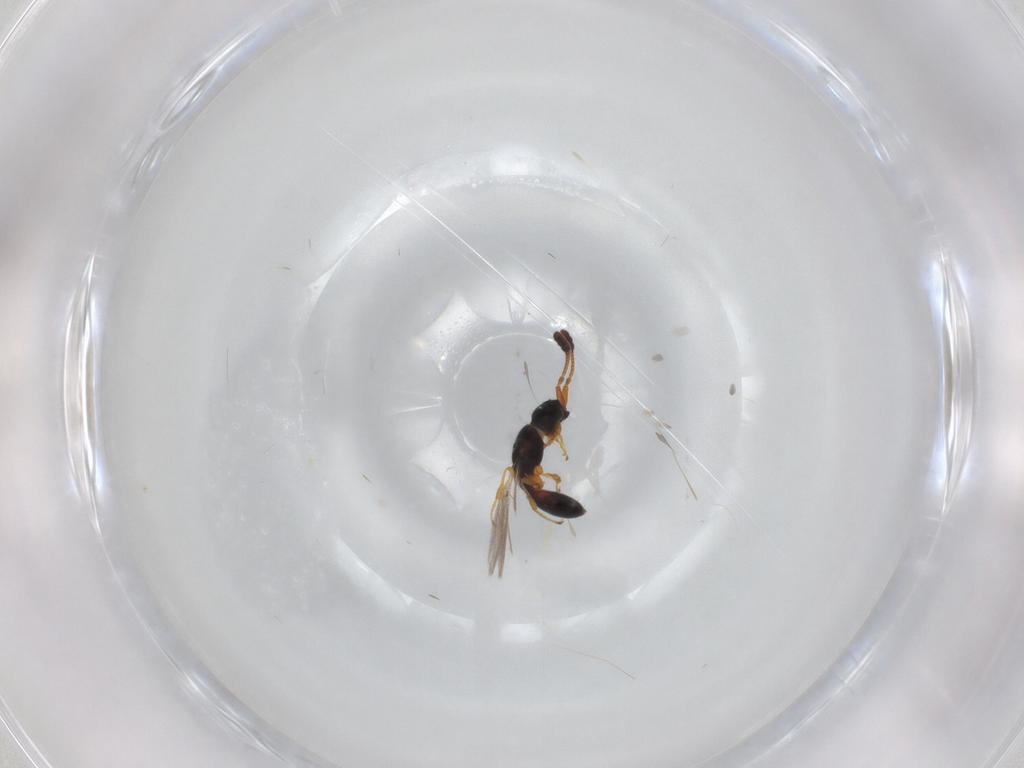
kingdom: Animalia
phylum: Arthropoda
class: Insecta
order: Hymenoptera
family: Diapriidae
